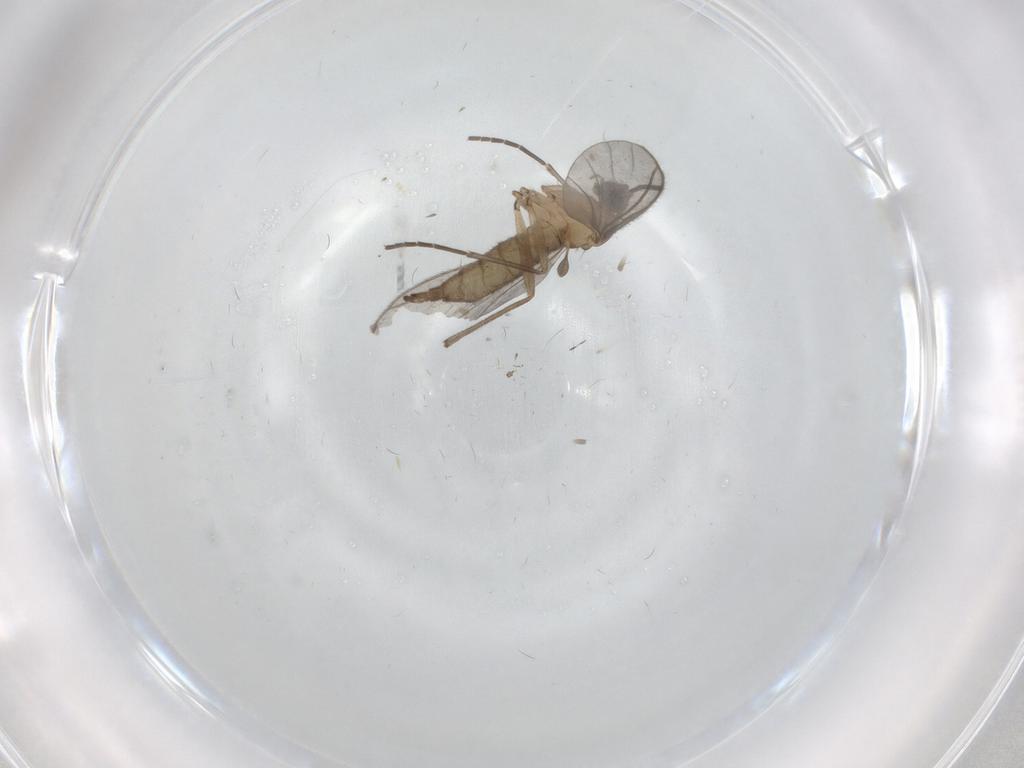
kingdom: Animalia
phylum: Arthropoda
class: Insecta
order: Diptera
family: Sciaridae
